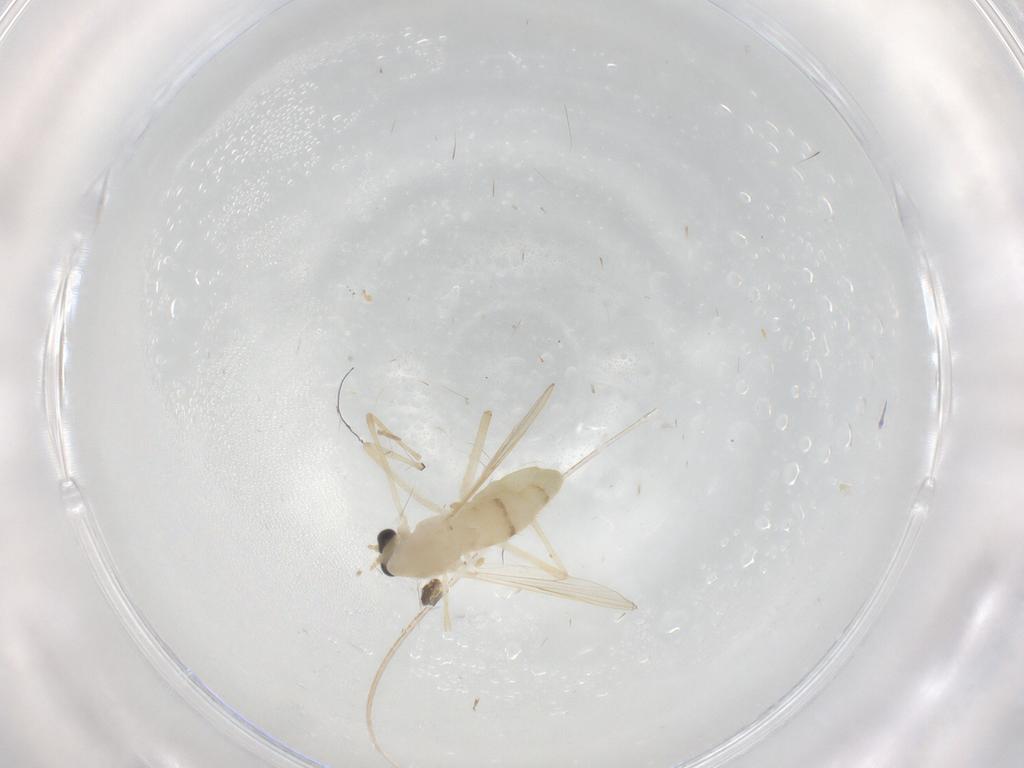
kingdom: Animalia
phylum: Arthropoda
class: Insecta
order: Diptera
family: Chironomidae
